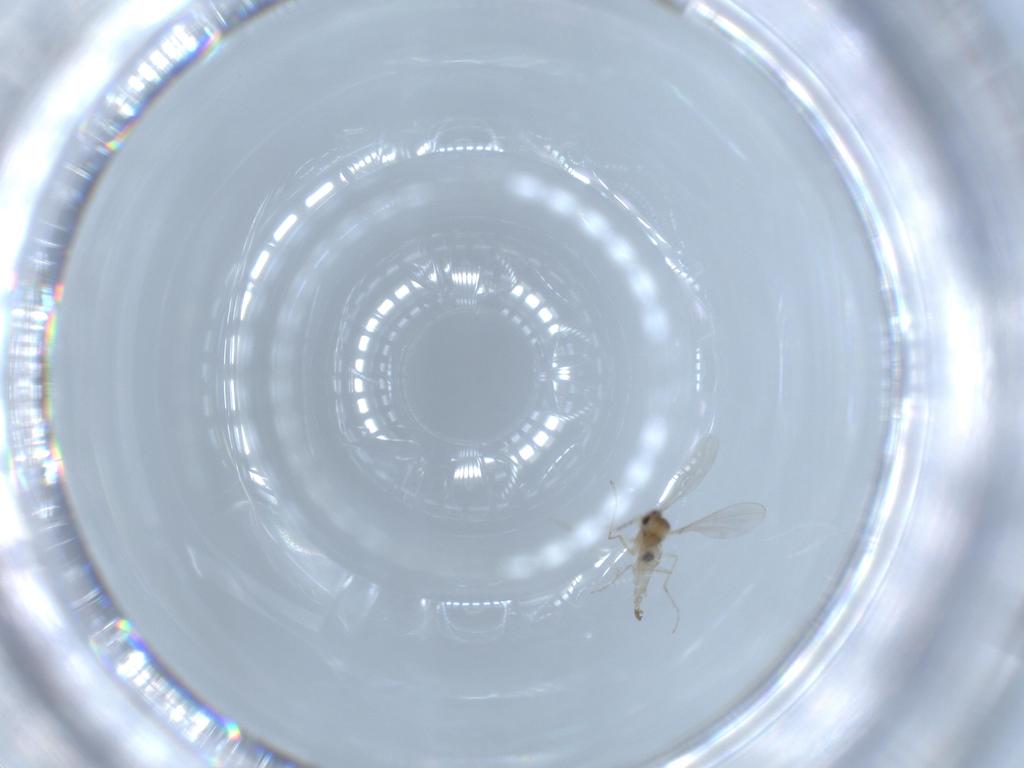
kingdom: Animalia
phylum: Arthropoda
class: Insecta
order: Diptera
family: Cecidomyiidae
